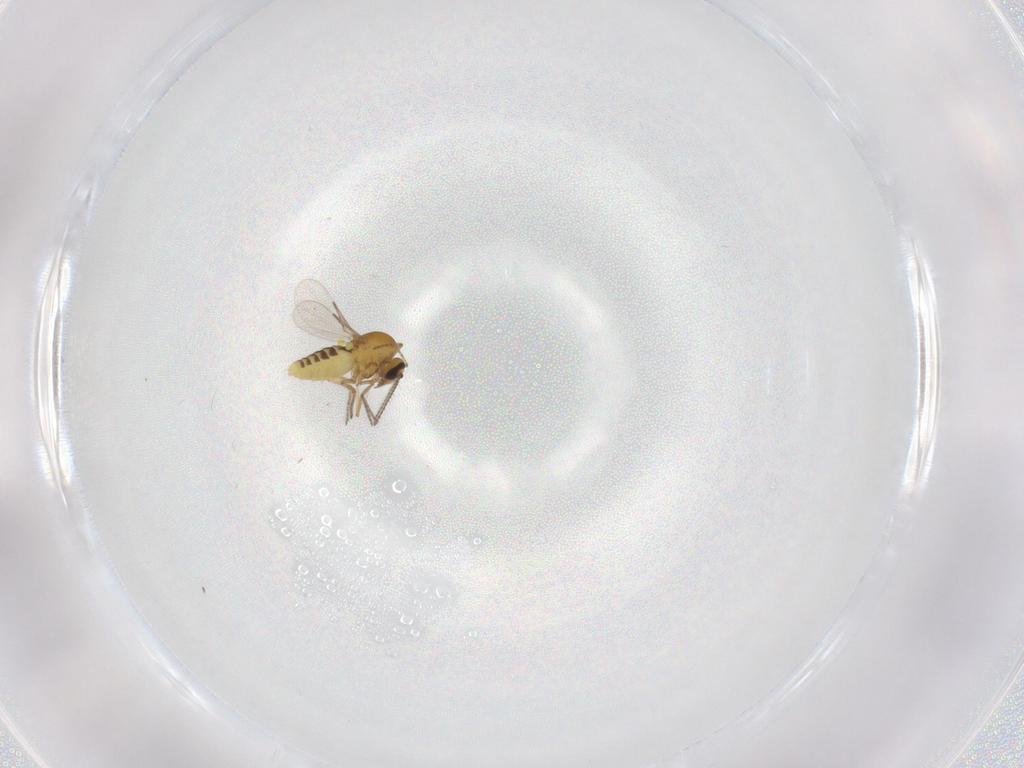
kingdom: Animalia
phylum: Arthropoda
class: Insecta
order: Diptera
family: Ceratopogonidae
